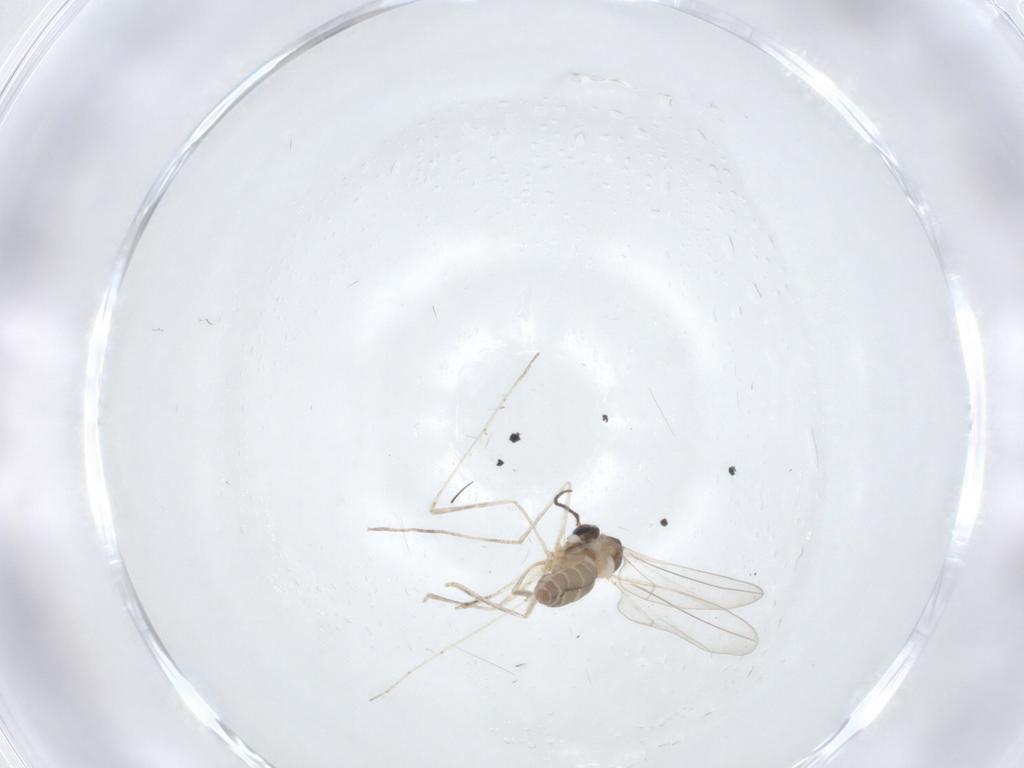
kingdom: Animalia
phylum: Arthropoda
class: Insecta
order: Diptera
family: Cecidomyiidae
